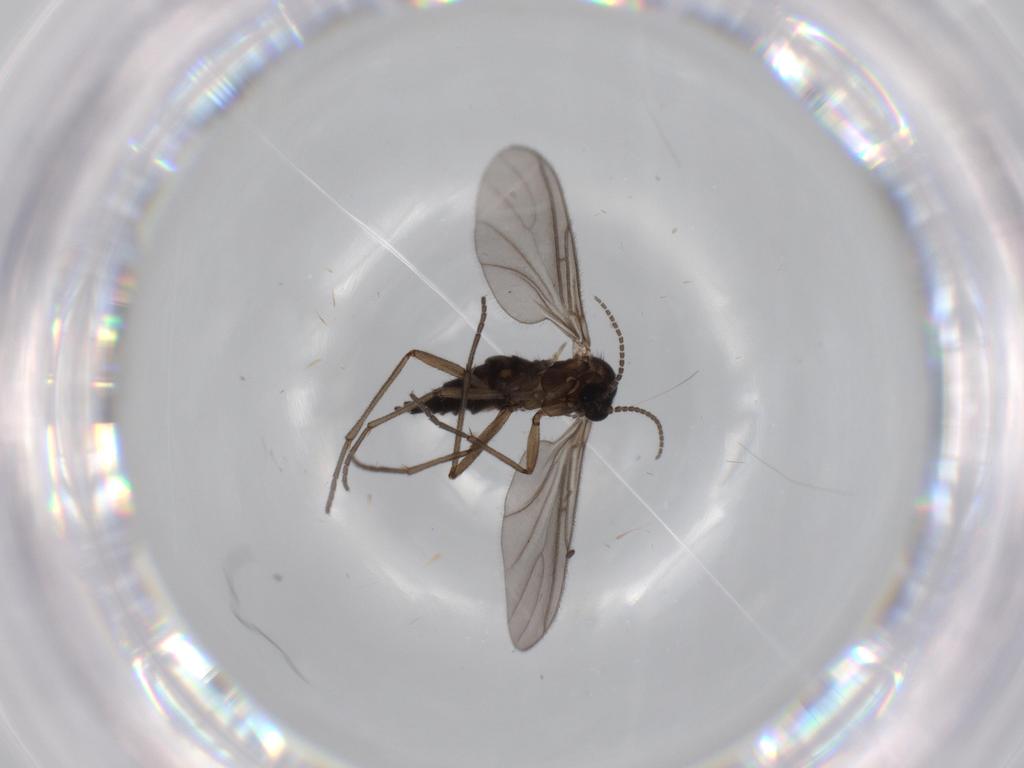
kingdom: Animalia
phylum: Arthropoda
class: Insecta
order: Diptera
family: Sciaridae
